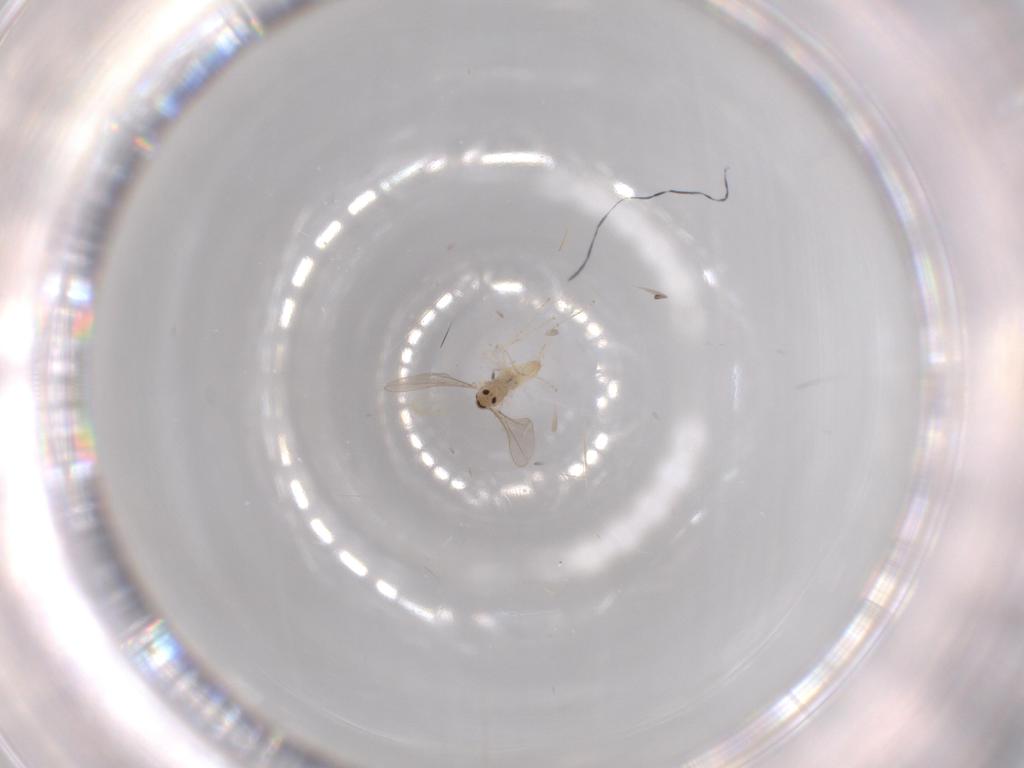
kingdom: Animalia
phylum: Arthropoda
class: Insecta
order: Diptera
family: Cecidomyiidae
